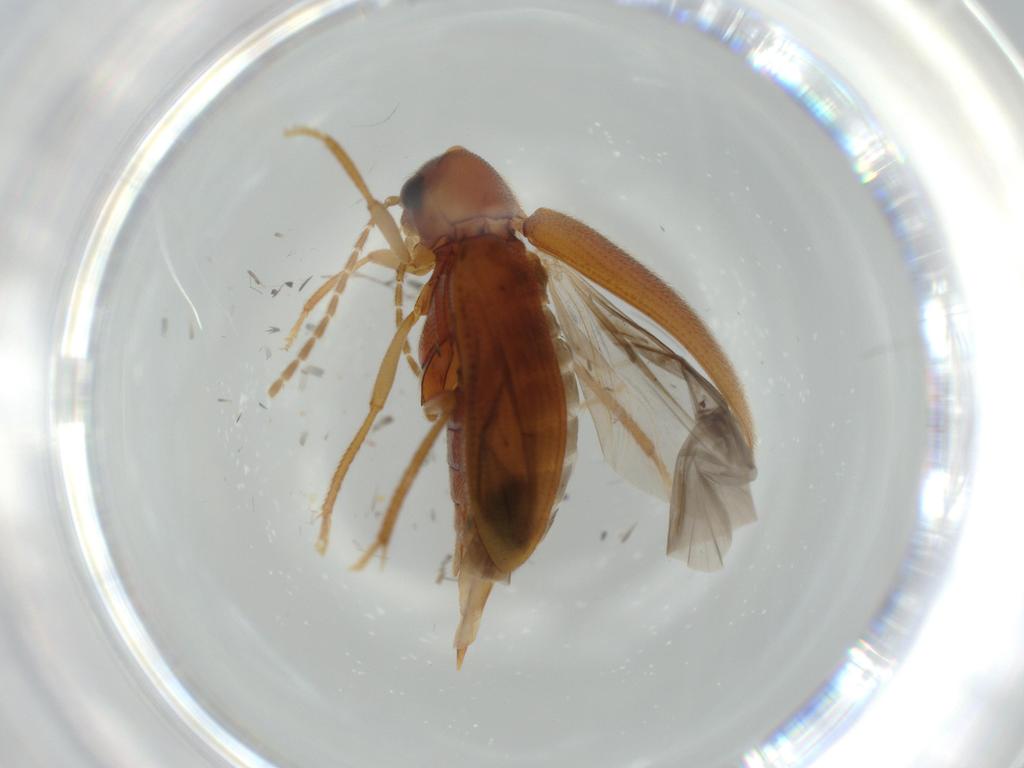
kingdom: Animalia
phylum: Arthropoda
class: Insecta
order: Coleoptera
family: Ptilodactylidae
